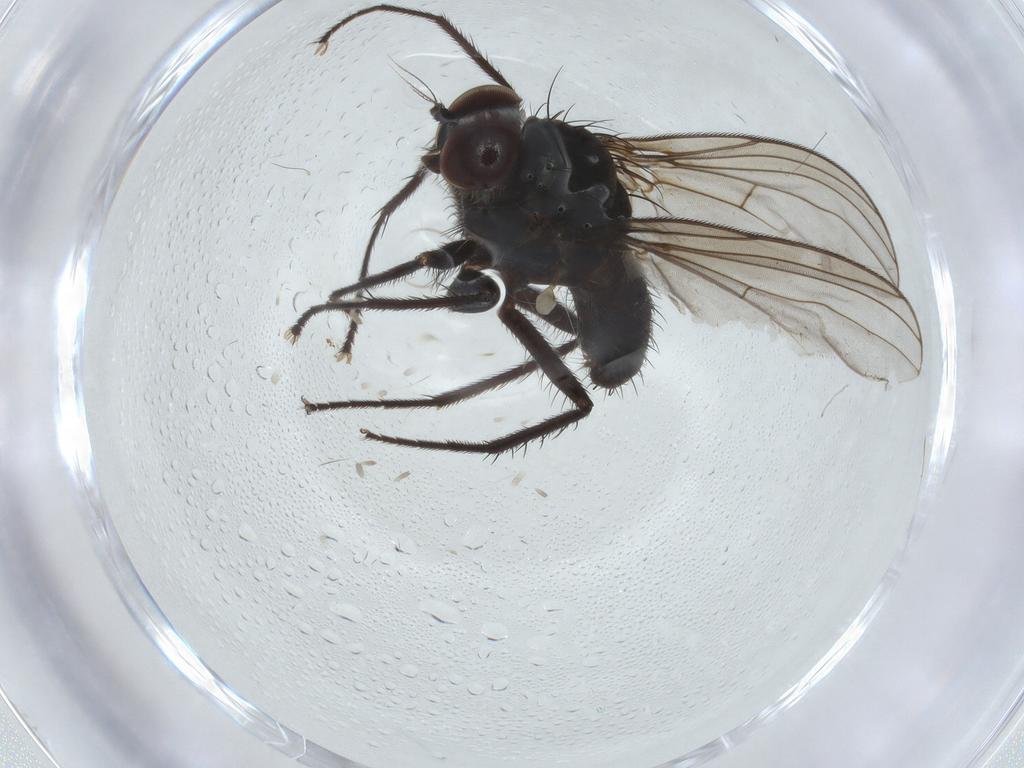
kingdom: Animalia
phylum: Arthropoda
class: Insecta
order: Diptera
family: Dolichopodidae
